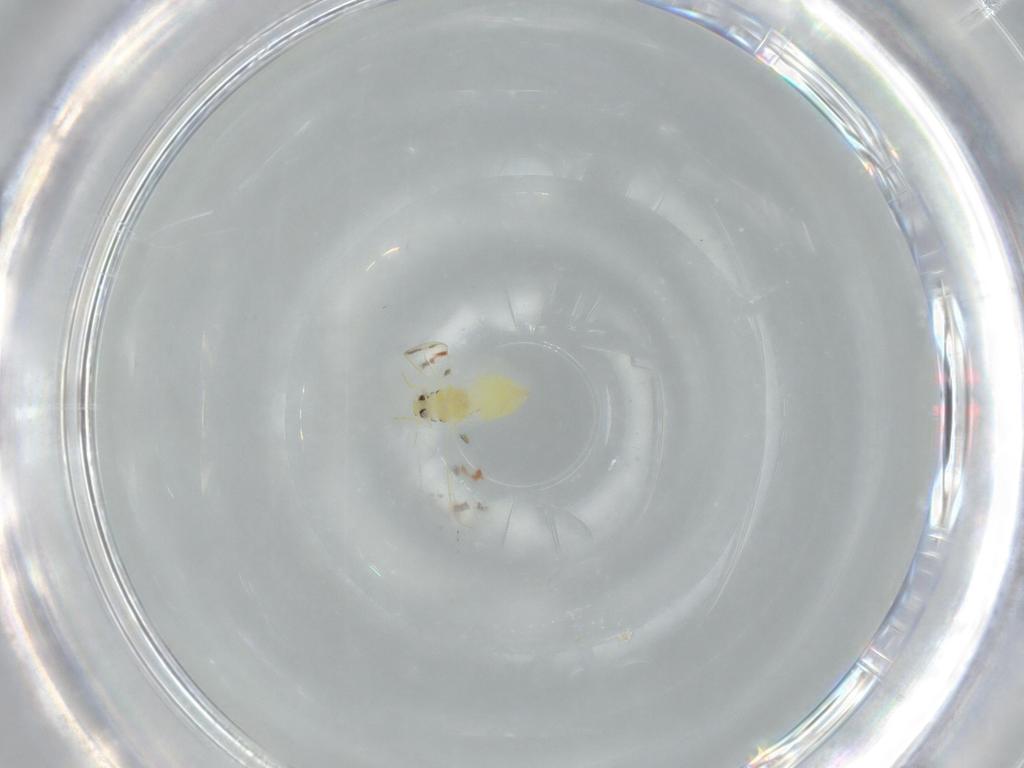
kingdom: Animalia
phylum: Arthropoda
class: Insecta
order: Hemiptera
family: Aleyrodidae
